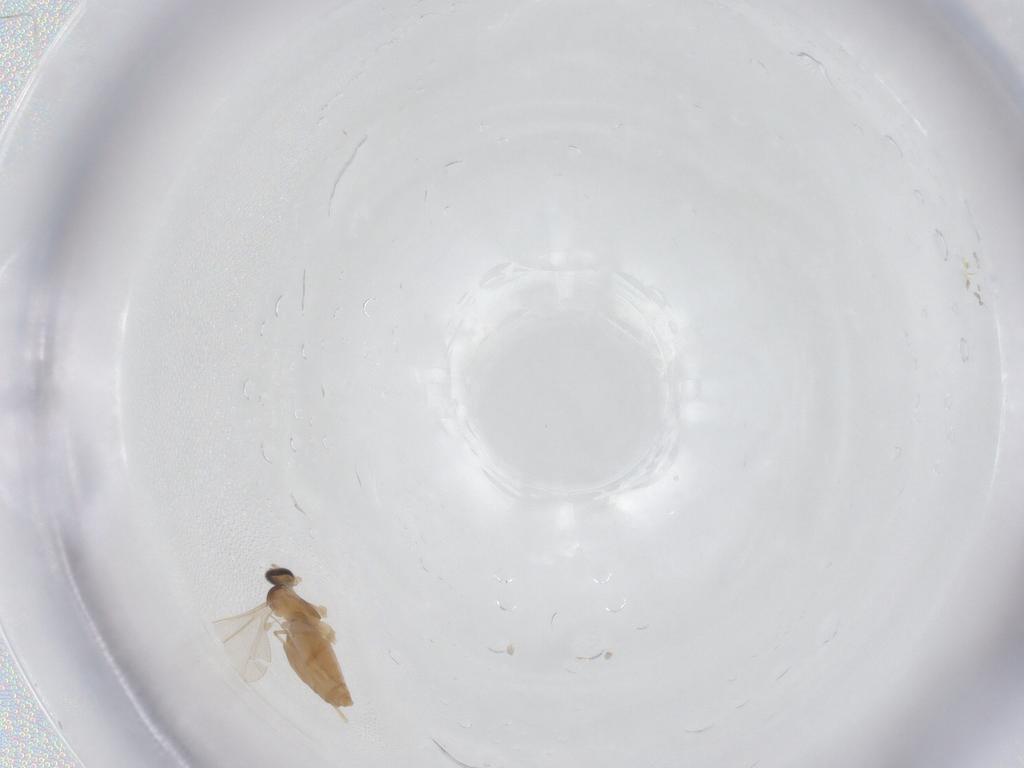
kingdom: Animalia
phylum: Arthropoda
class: Insecta
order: Diptera
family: Cecidomyiidae
